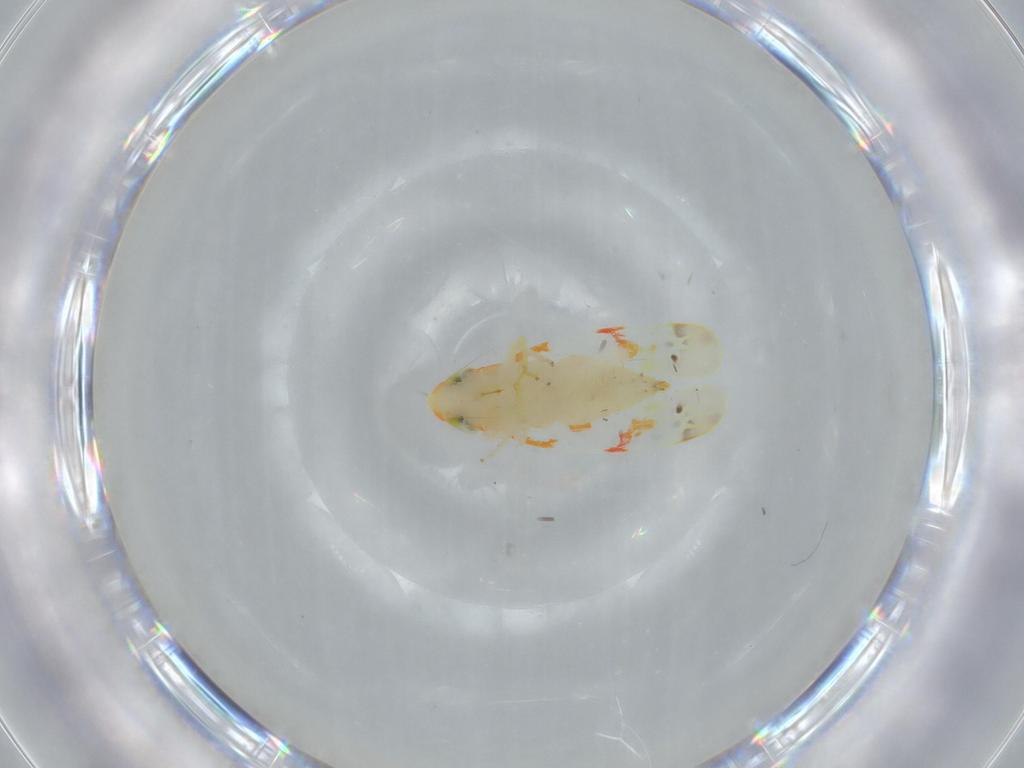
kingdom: Animalia
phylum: Arthropoda
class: Insecta
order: Hemiptera
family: Cicadellidae
